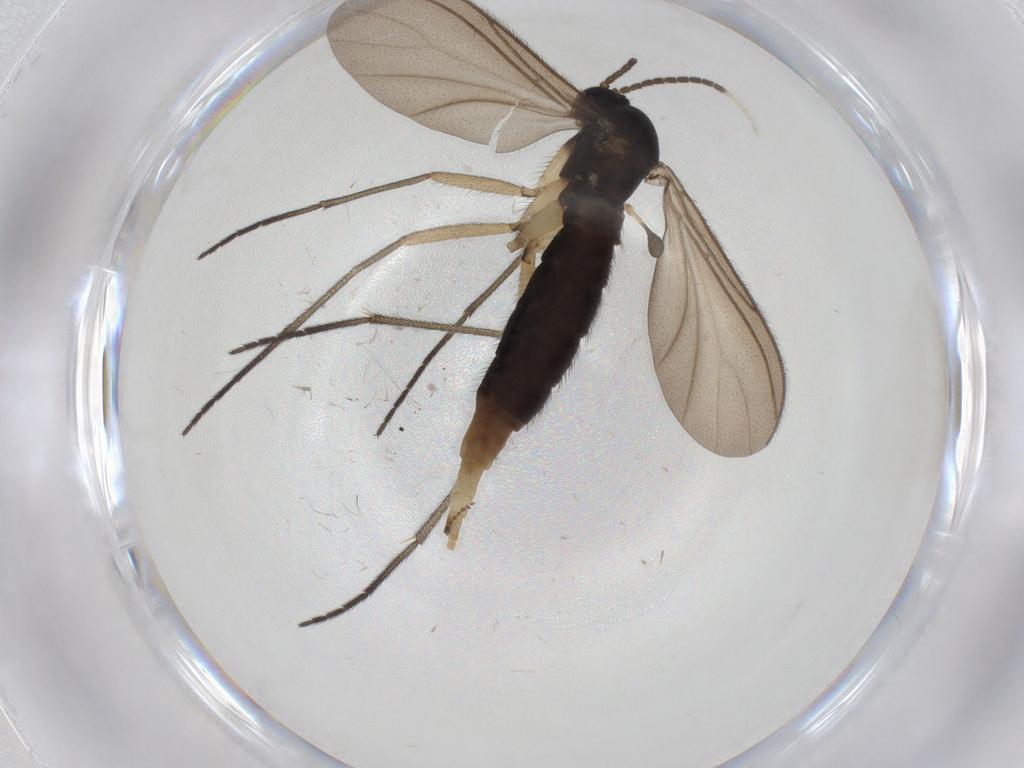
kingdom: Animalia
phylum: Arthropoda
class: Insecta
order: Diptera
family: Sciaridae
